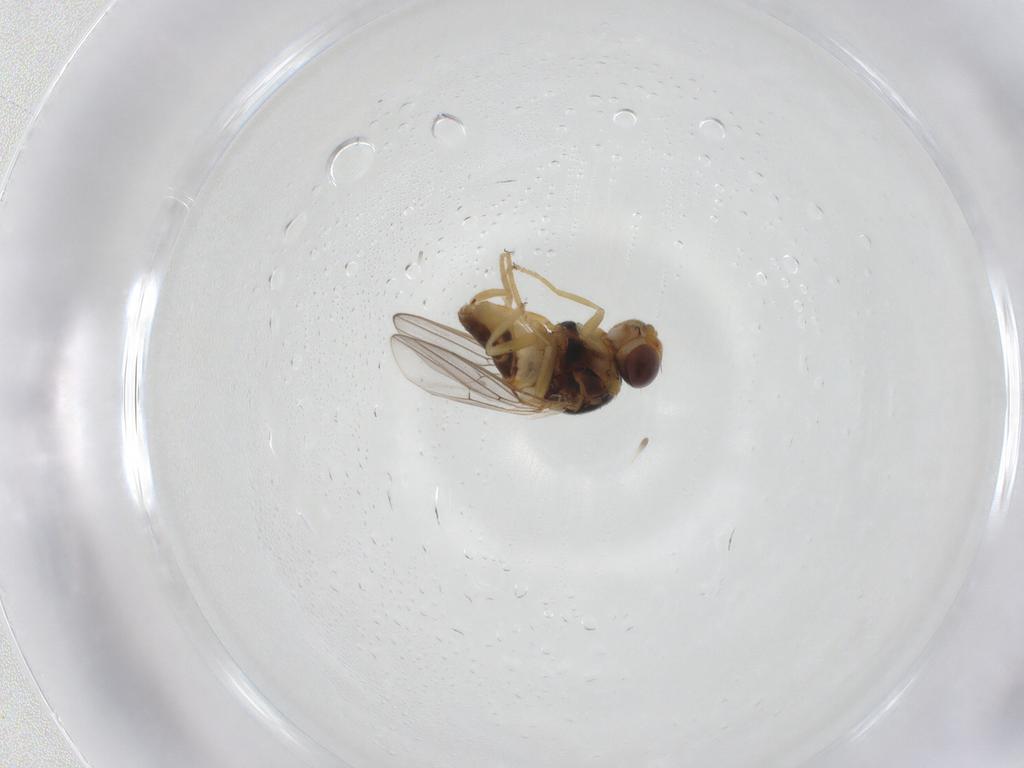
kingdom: Animalia
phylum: Arthropoda
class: Insecta
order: Diptera
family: Chloropidae
